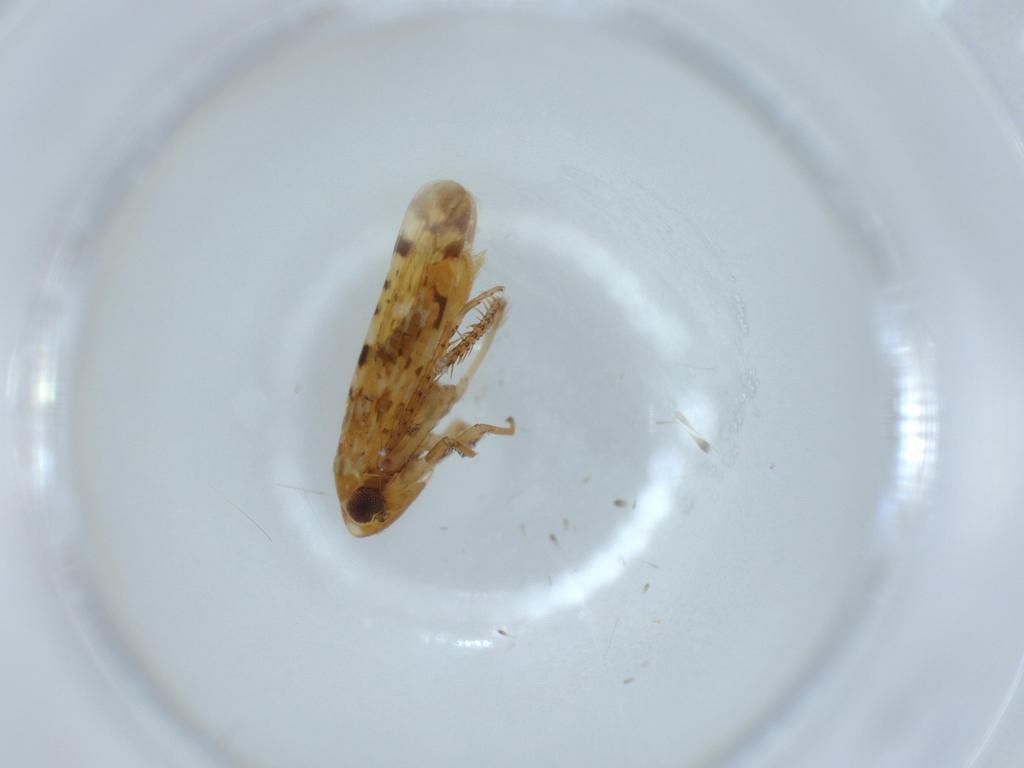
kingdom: Animalia
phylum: Arthropoda
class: Insecta
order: Hemiptera
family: Cicadellidae
